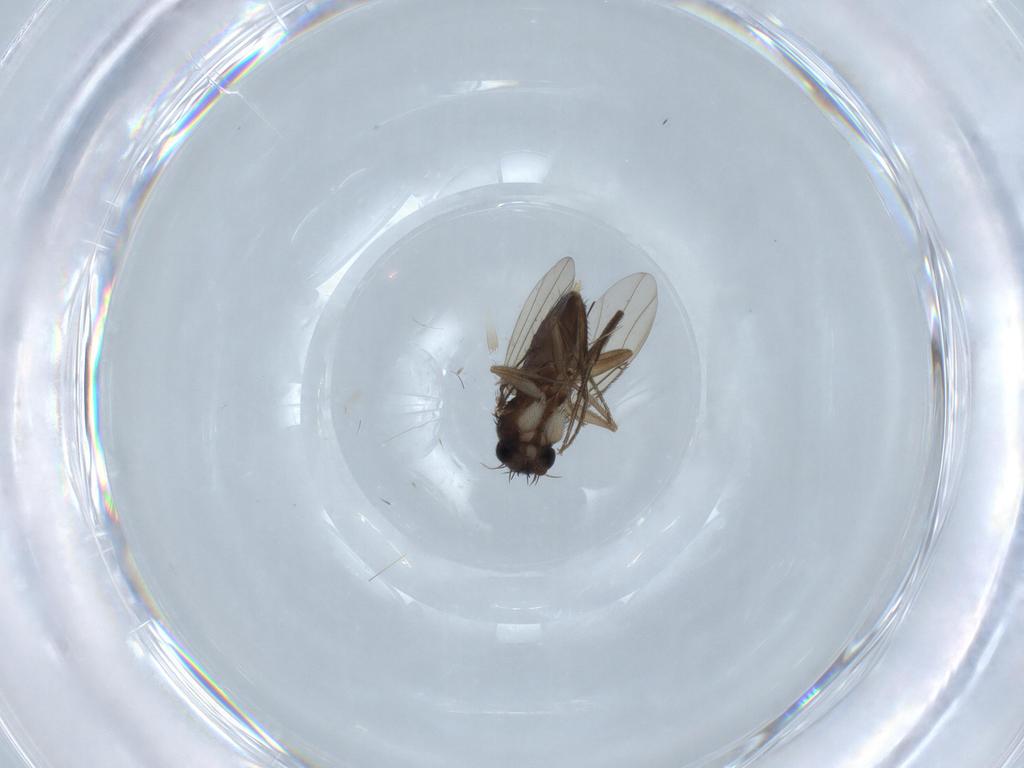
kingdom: Animalia
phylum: Arthropoda
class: Insecta
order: Diptera
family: Phoridae
